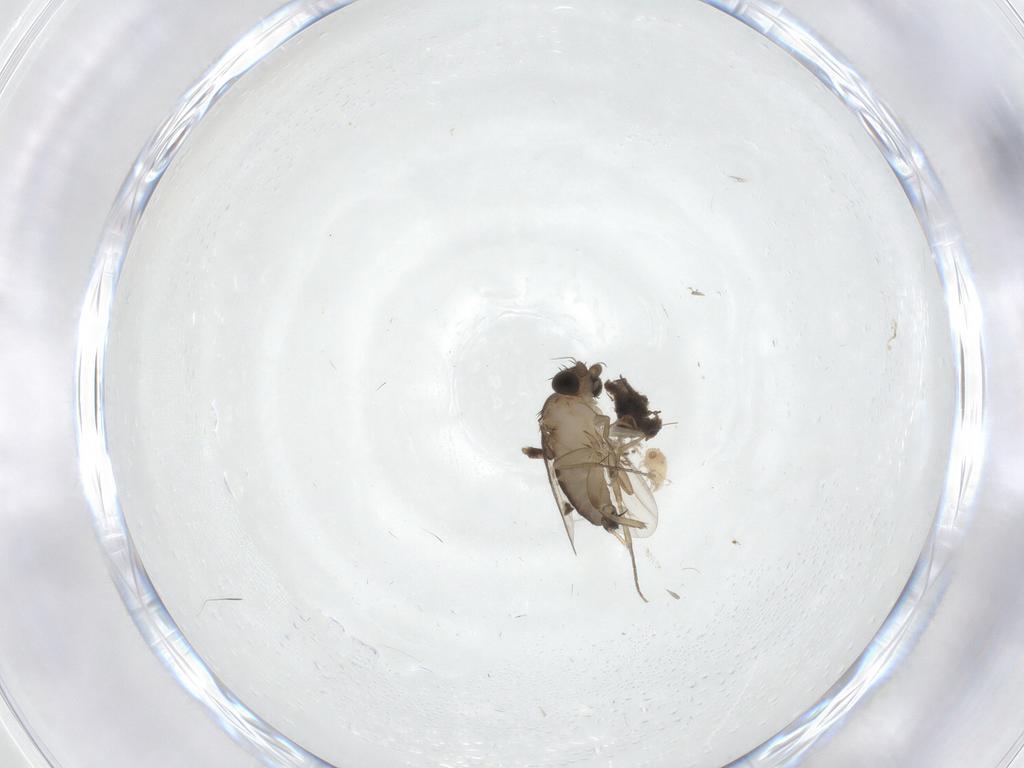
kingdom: Animalia
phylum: Arthropoda
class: Insecta
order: Diptera
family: Phoridae
